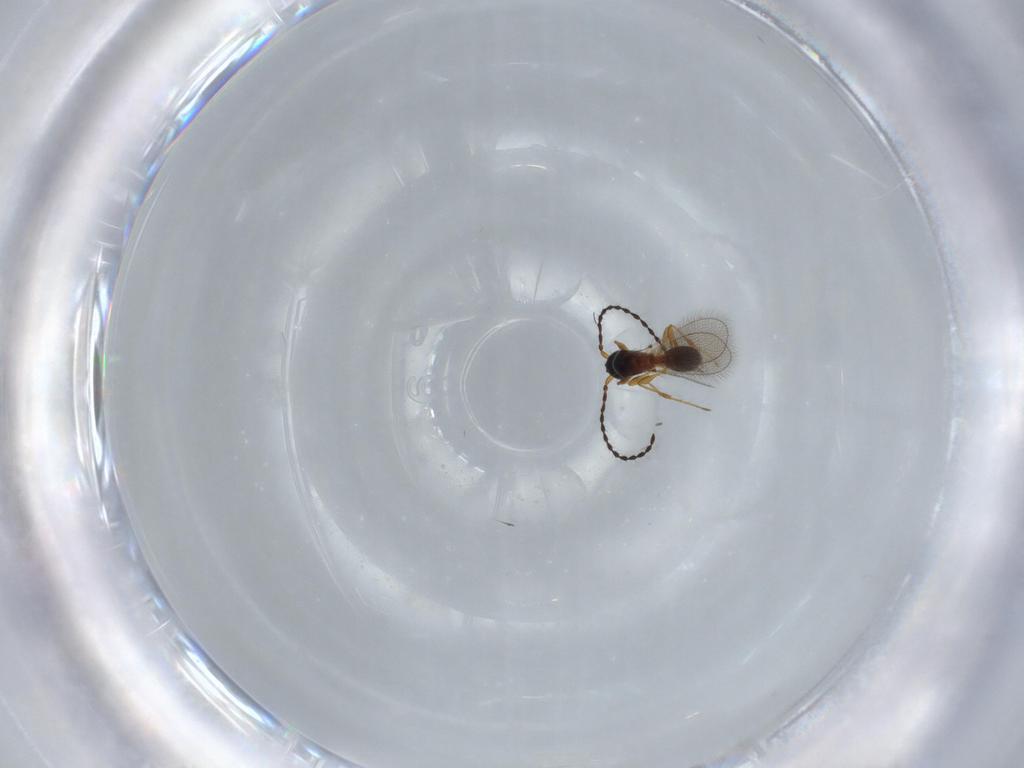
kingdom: Animalia
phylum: Arthropoda
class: Insecta
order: Hymenoptera
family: Diapriidae
